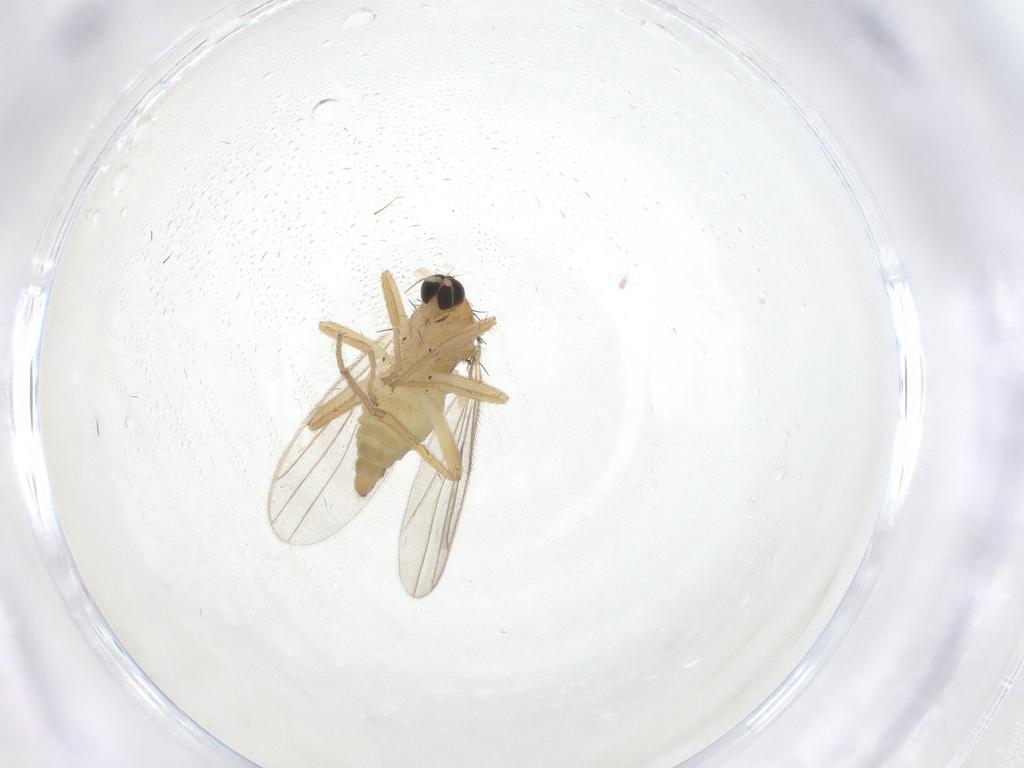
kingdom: Animalia
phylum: Arthropoda
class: Insecta
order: Diptera
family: Hybotidae
